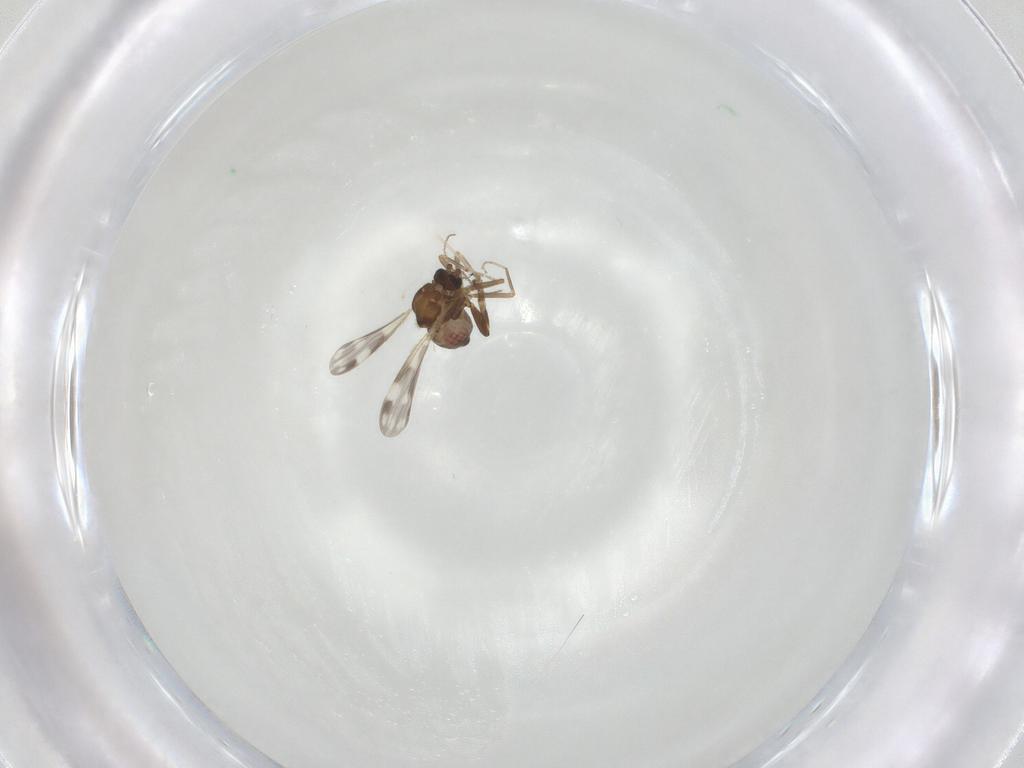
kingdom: Animalia
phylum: Arthropoda
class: Insecta
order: Diptera
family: Ceratopogonidae
